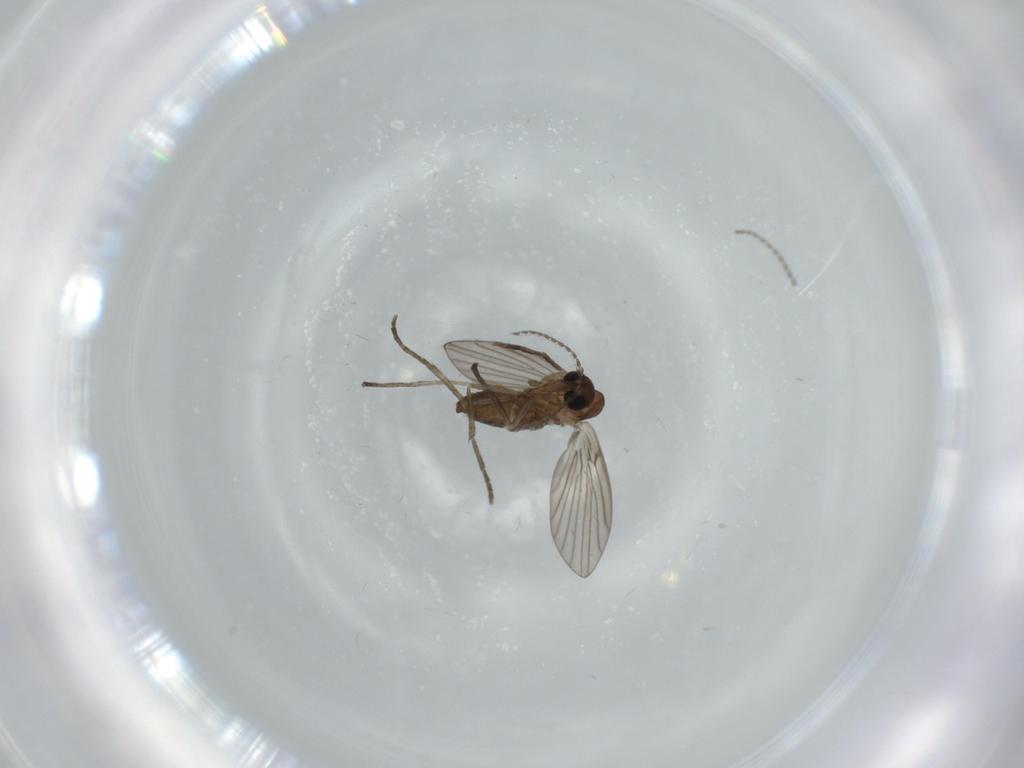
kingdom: Animalia
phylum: Arthropoda
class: Insecta
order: Diptera
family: Psychodidae
